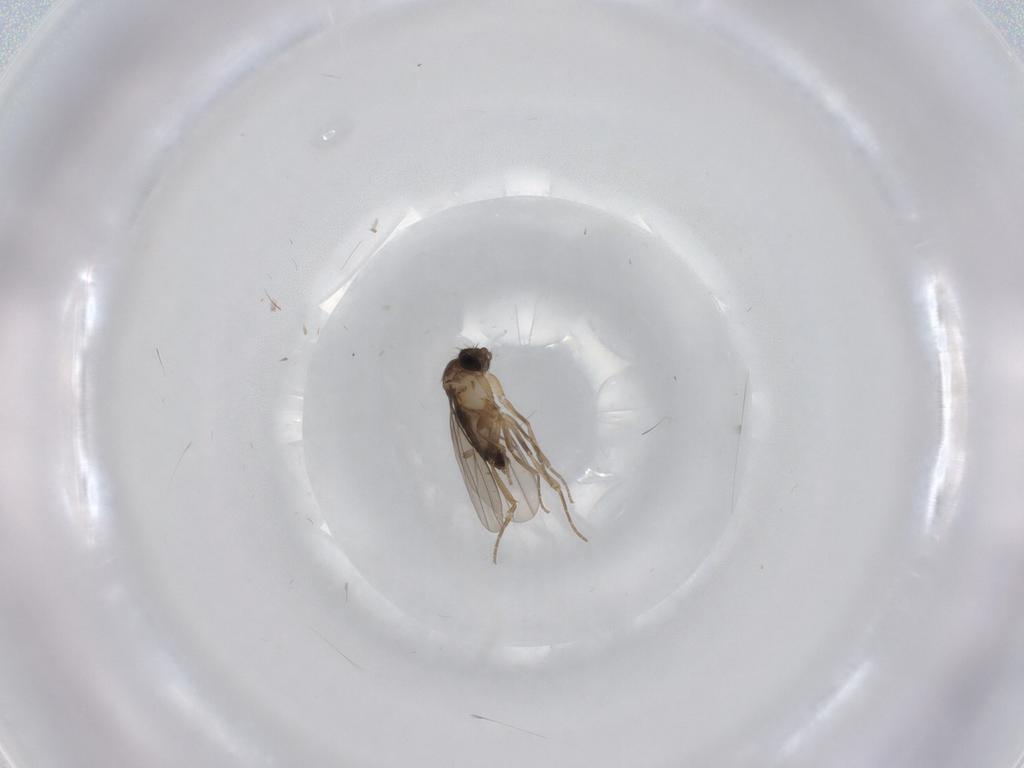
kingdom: Animalia
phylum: Arthropoda
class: Insecta
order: Diptera
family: Phoridae
